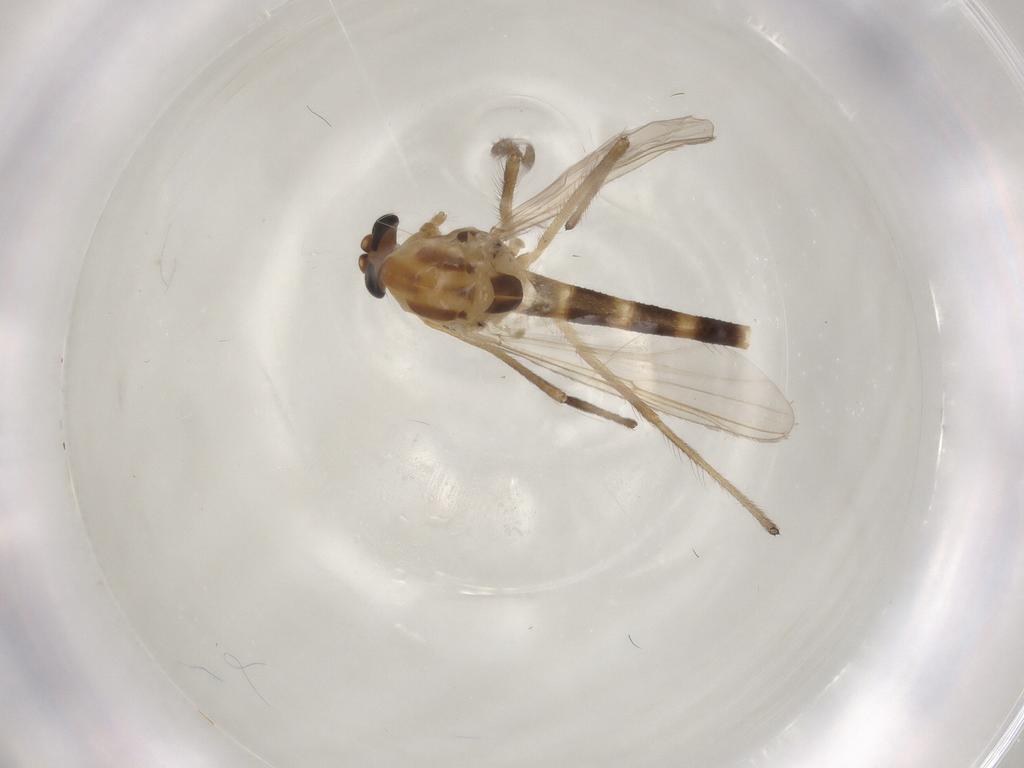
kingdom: Animalia
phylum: Arthropoda
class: Insecta
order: Diptera
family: Chironomidae
